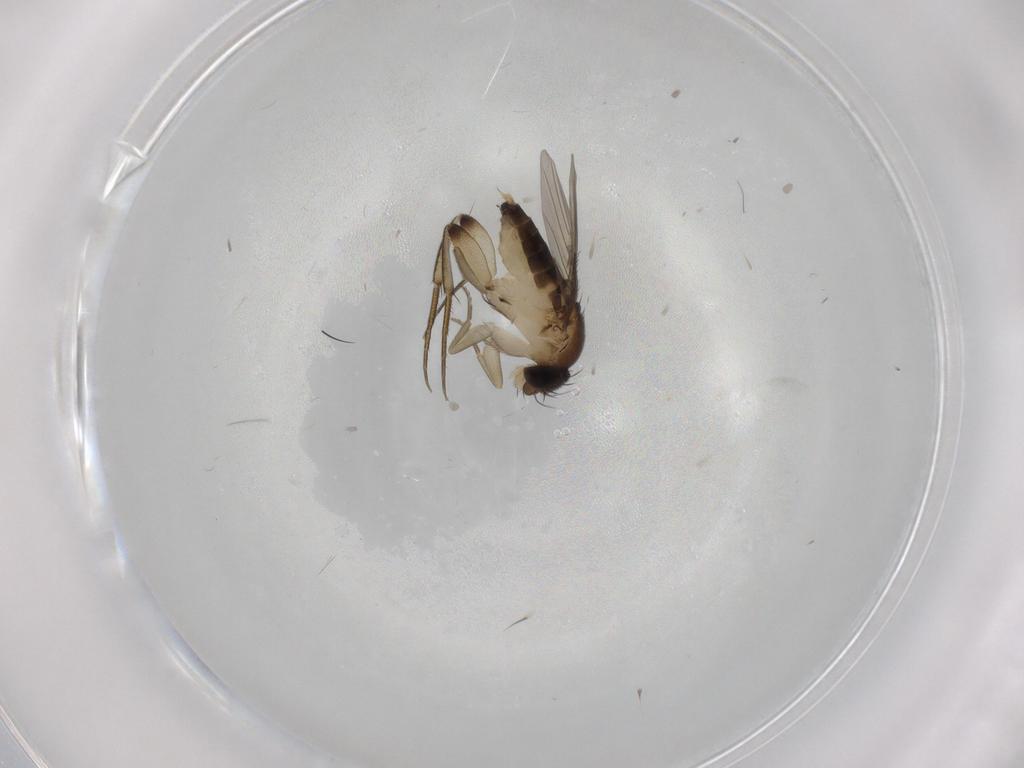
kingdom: Animalia
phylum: Arthropoda
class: Insecta
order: Diptera
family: Phoridae
